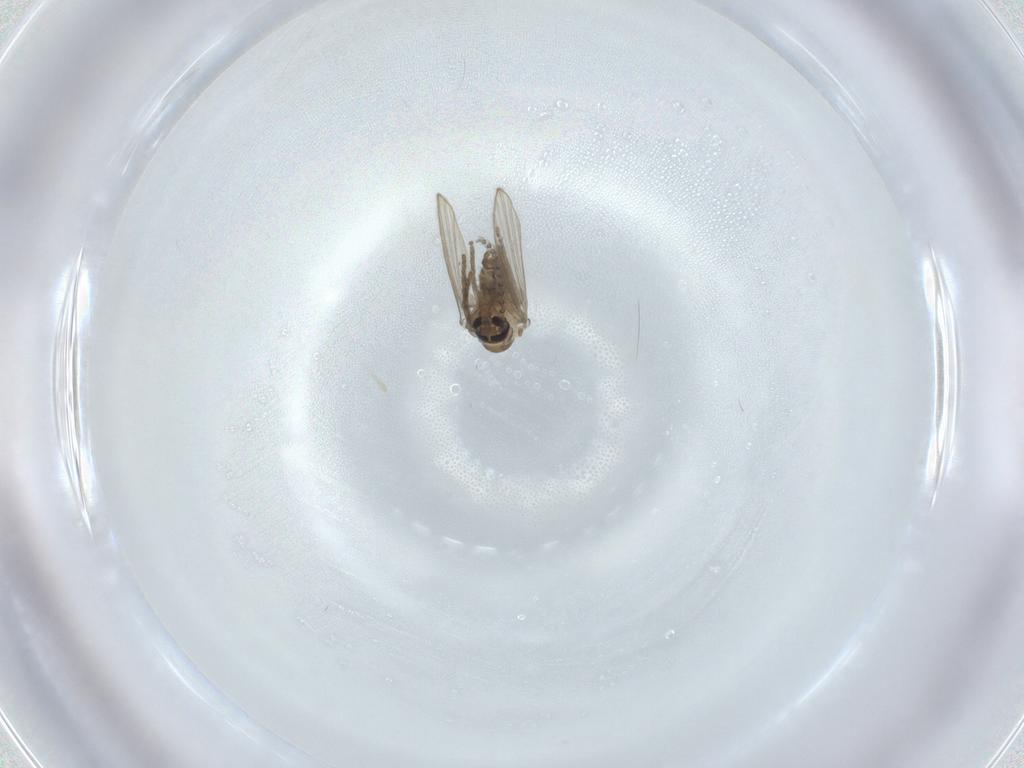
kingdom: Animalia
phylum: Arthropoda
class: Insecta
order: Diptera
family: Psychodidae
